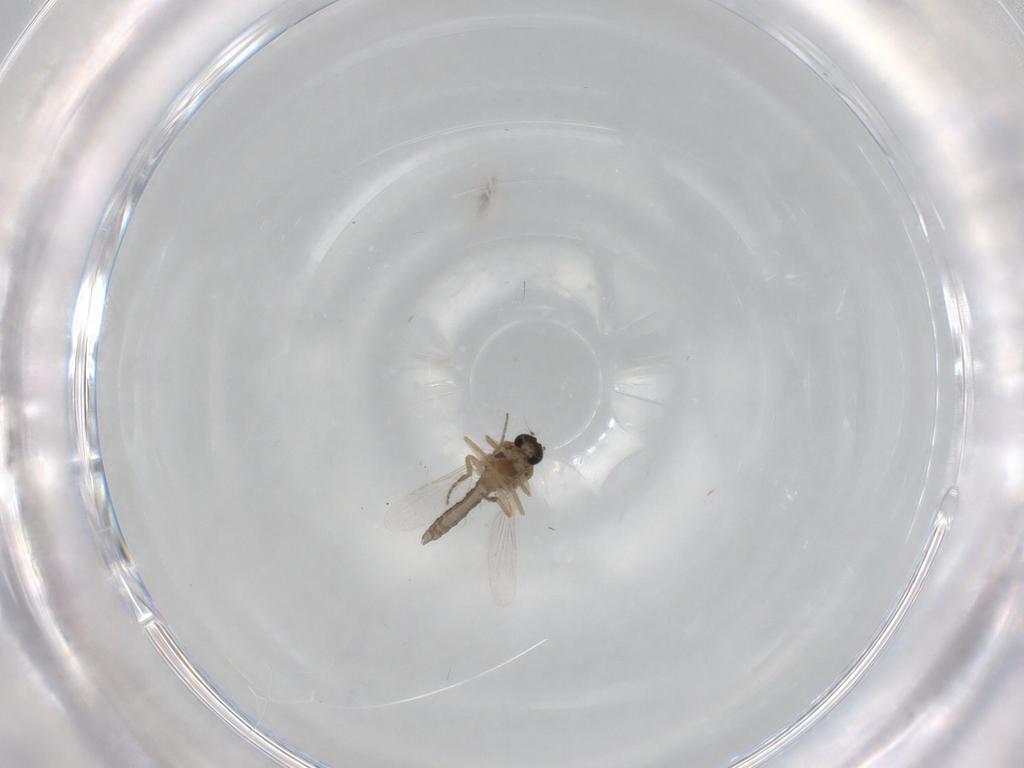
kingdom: Animalia
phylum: Arthropoda
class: Insecta
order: Diptera
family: Ceratopogonidae
